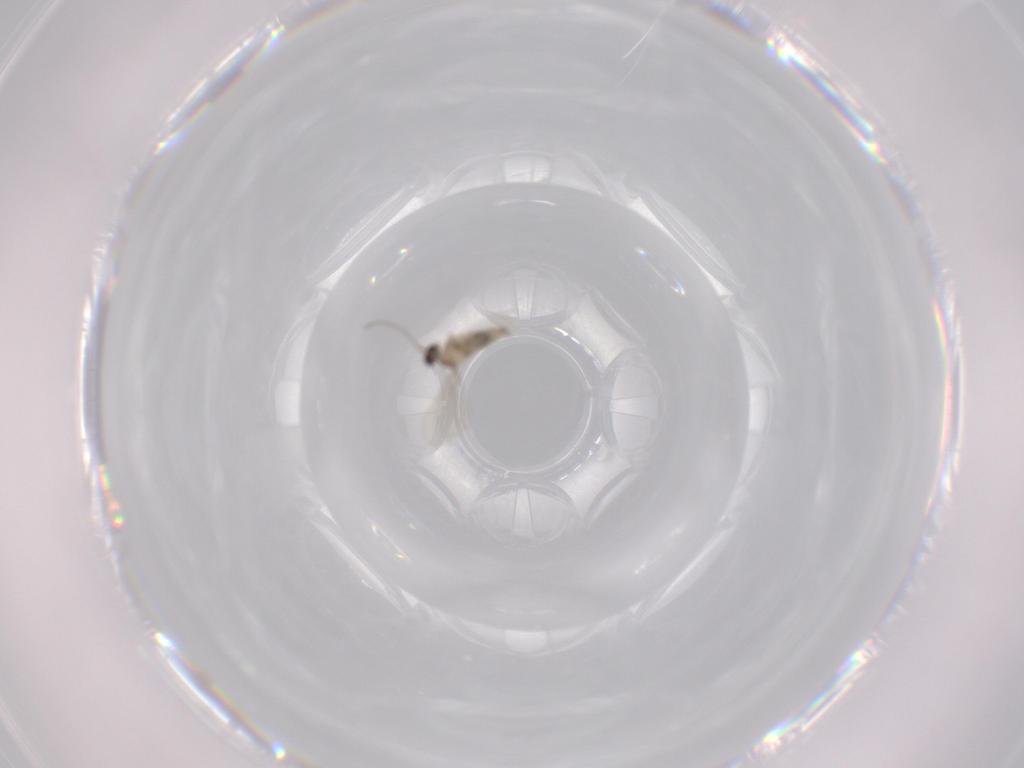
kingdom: Animalia
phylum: Arthropoda
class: Insecta
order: Diptera
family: Cecidomyiidae
